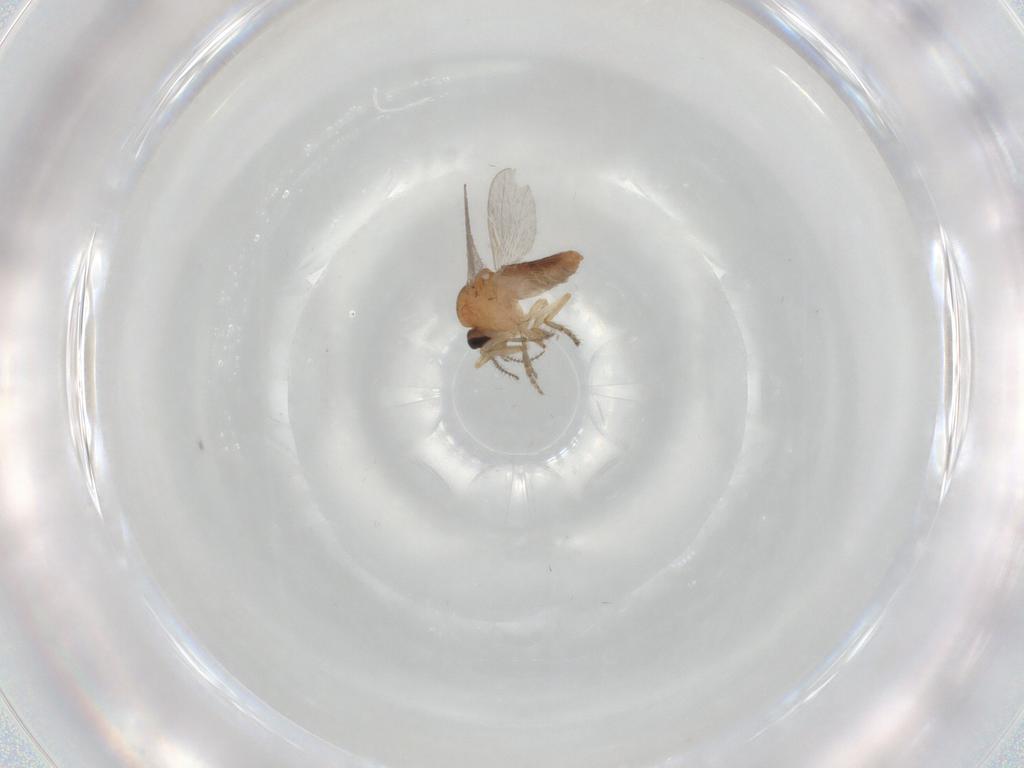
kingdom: Animalia
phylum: Arthropoda
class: Insecta
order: Diptera
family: Ceratopogonidae
